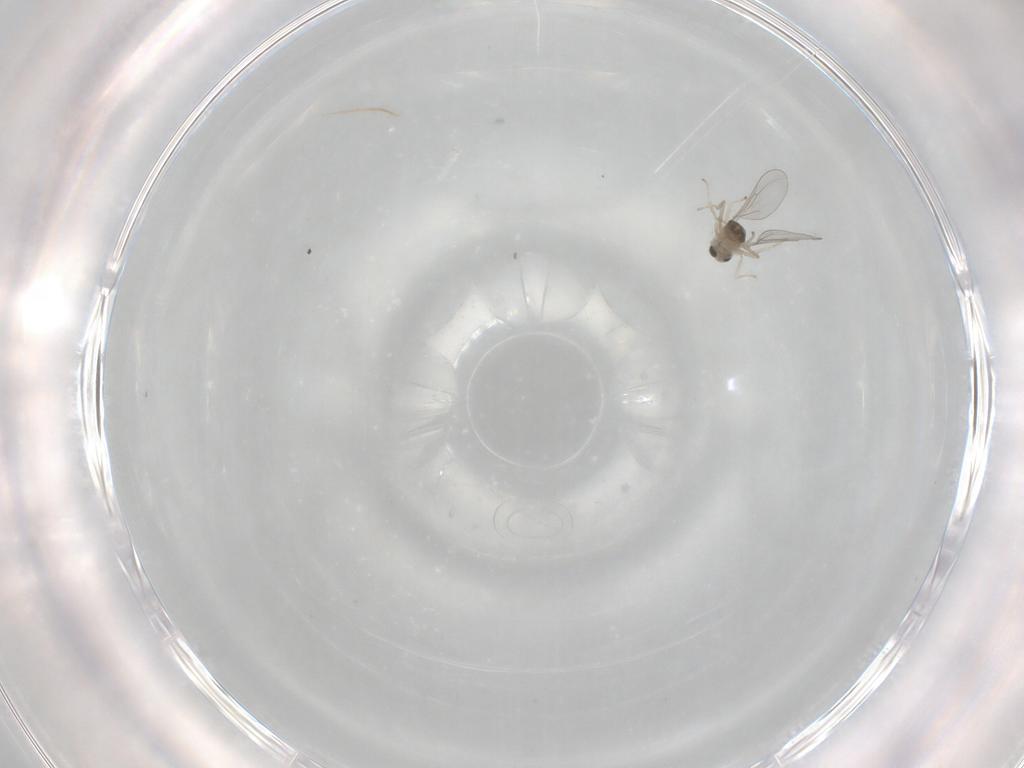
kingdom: Animalia
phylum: Arthropoda
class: Insecta
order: Diptera
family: Cecidomyiidae
